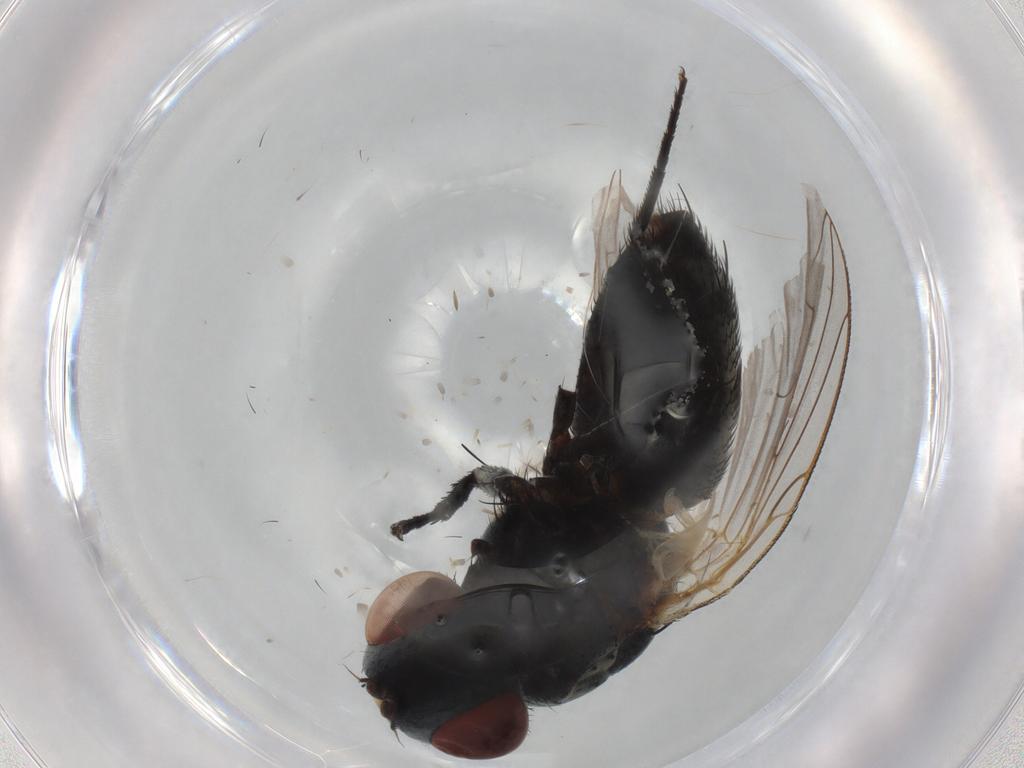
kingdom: Animalia
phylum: Arthropoda
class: Insecta
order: Diptera
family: Sarcophagidae
